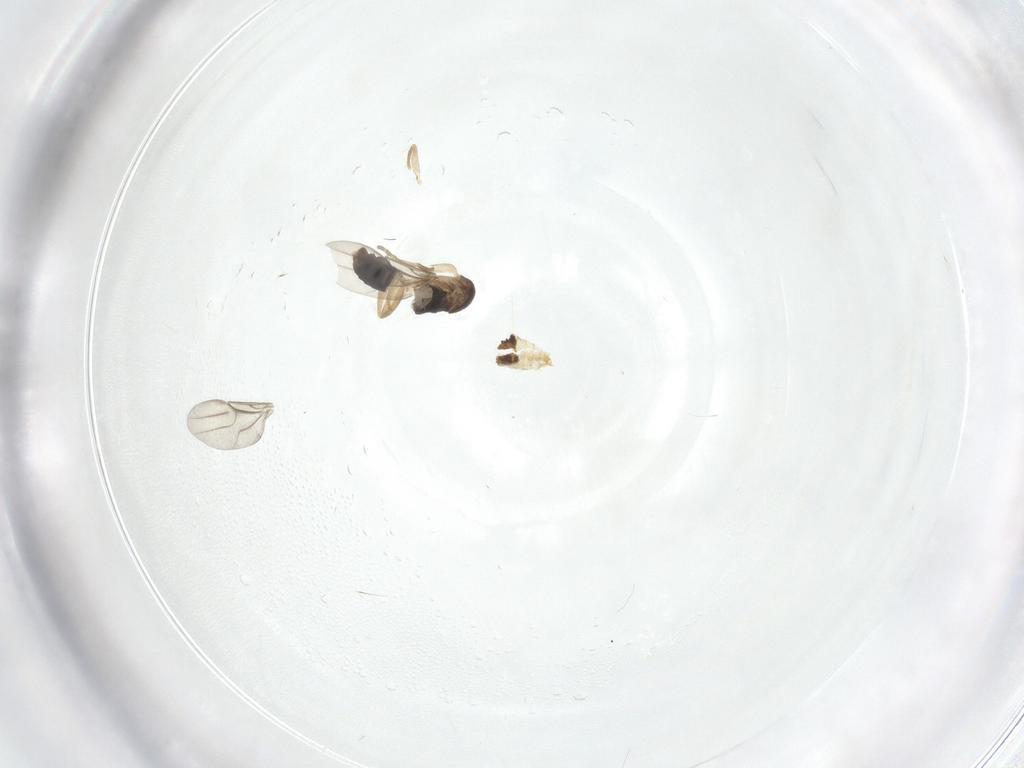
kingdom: Animalia
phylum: Arthropoda
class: Insecta
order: Diptera
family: Cecidomyiidae
